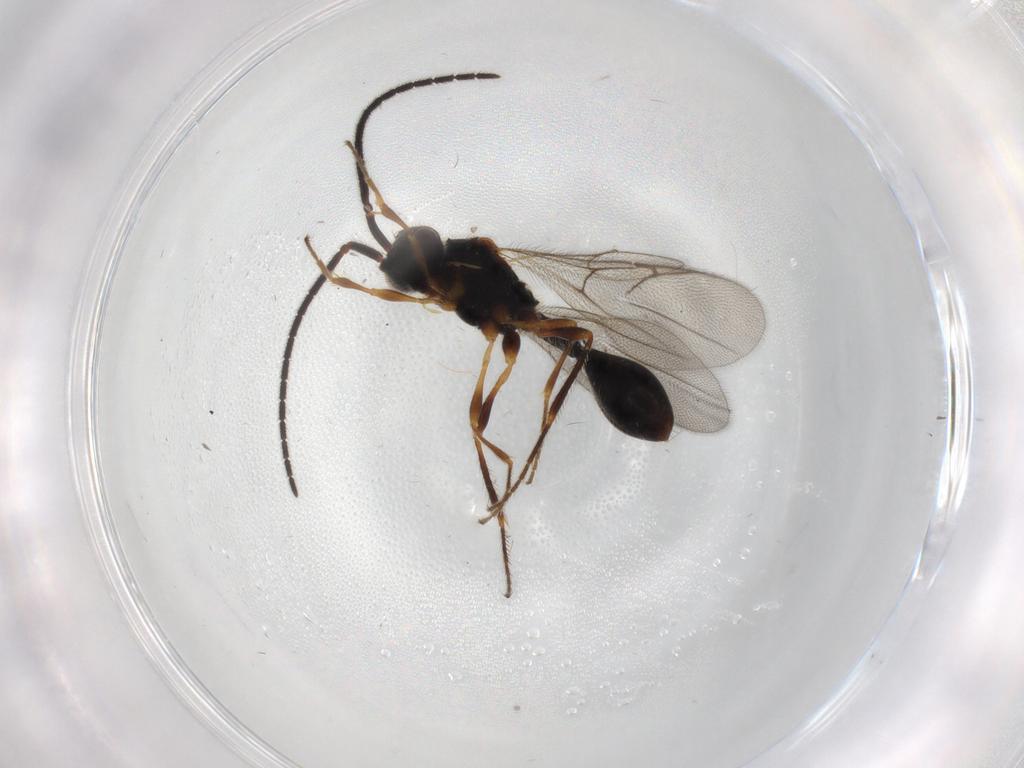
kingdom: Animalia
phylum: Arthropoda
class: Insecta
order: Hymenoptera
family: Diapriidae
